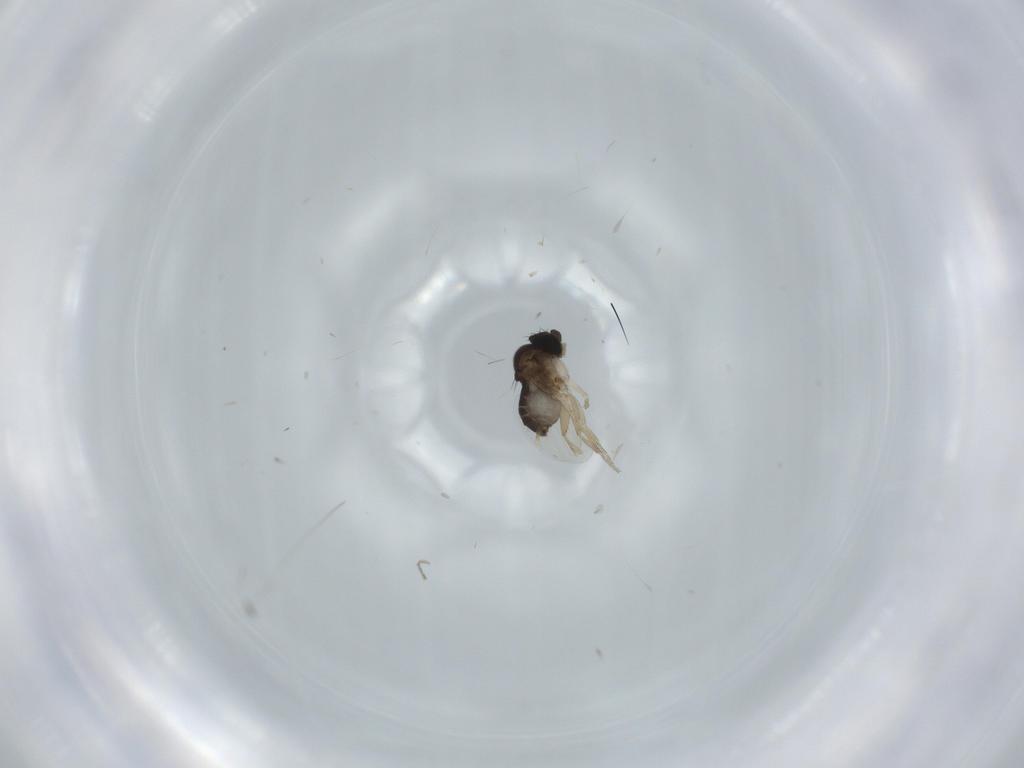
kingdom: Animalia
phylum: Arthropoda
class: Insecta
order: Diptera
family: Phoridae
